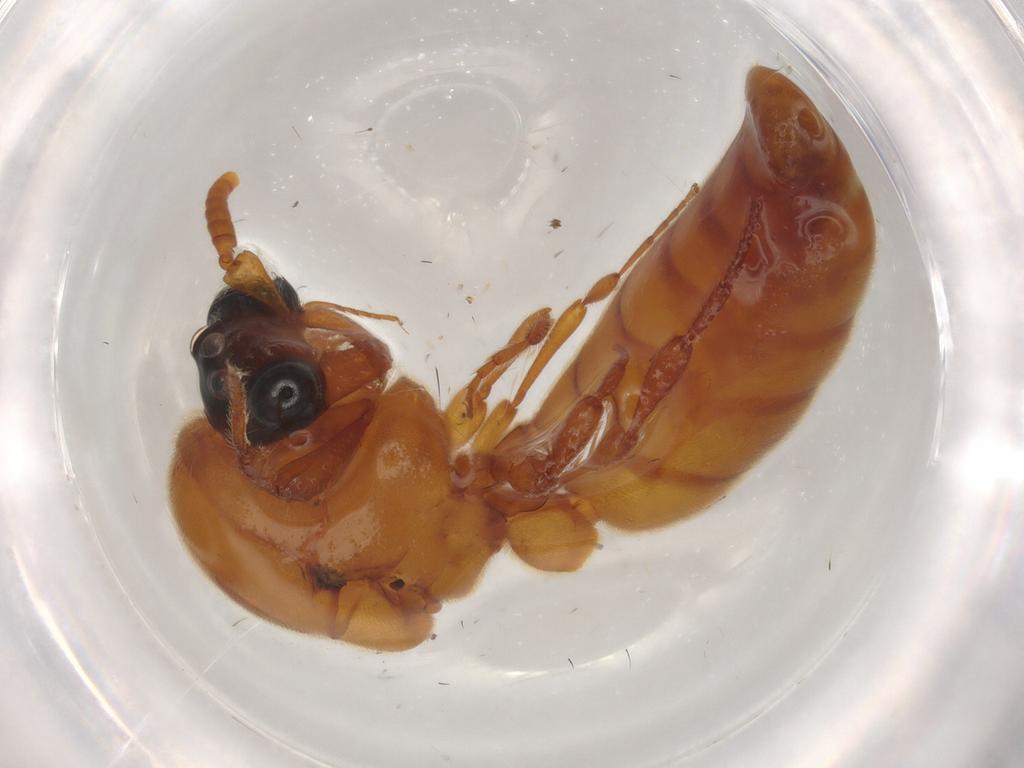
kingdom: Animalia
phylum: Arthropoda
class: Insecta
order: Hymenoptera
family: Formicidae
